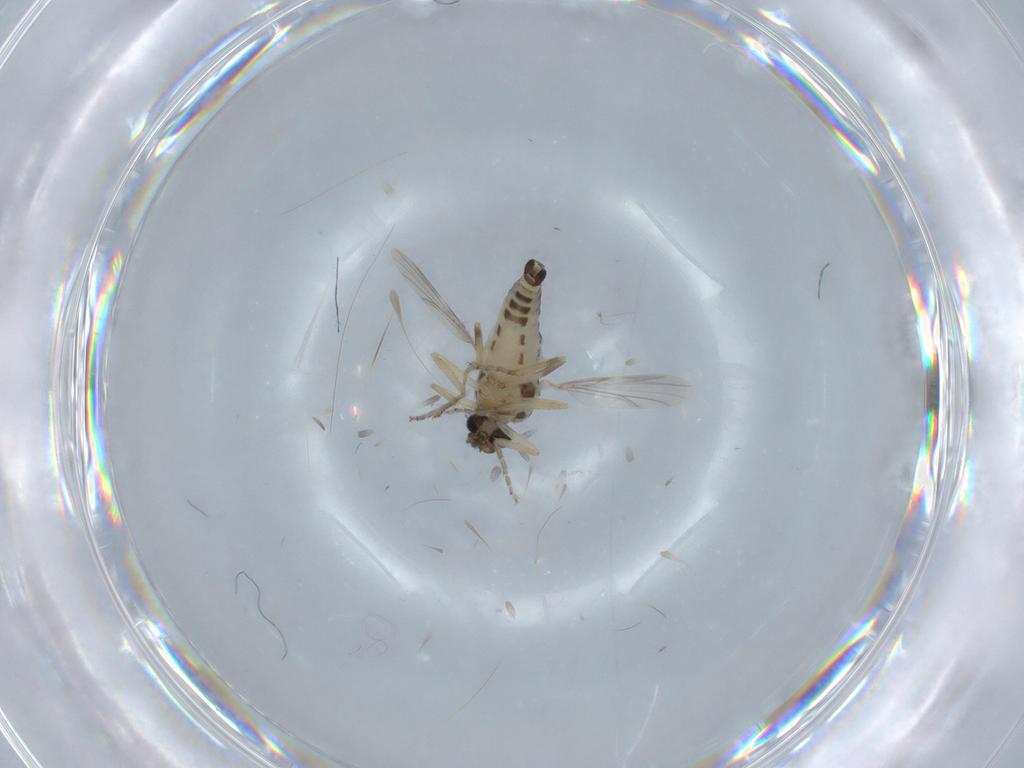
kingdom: Animalia
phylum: Arthropoda
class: Insecta
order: Diptera
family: Ceratopogonidae
